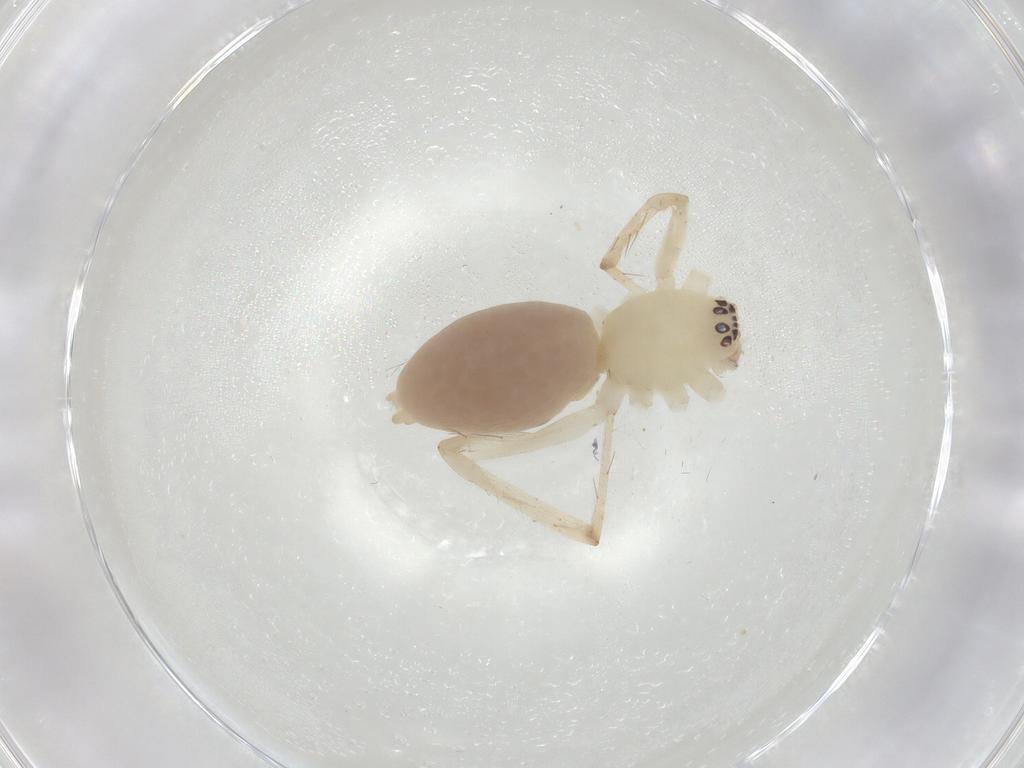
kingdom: Animalia
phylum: Arthropoda
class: Arachnida
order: Araneae
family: Anyphaenidae
